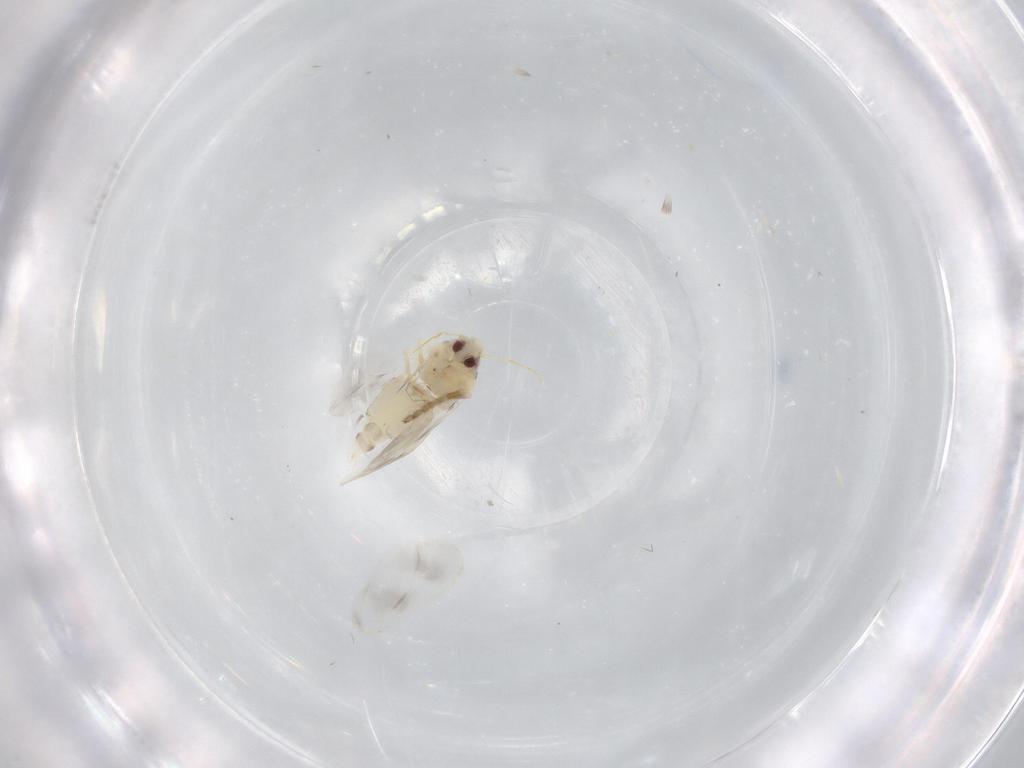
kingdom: Animalia
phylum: Arthropoda
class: Insecta
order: Hemiptera
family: Aleyrodidae
